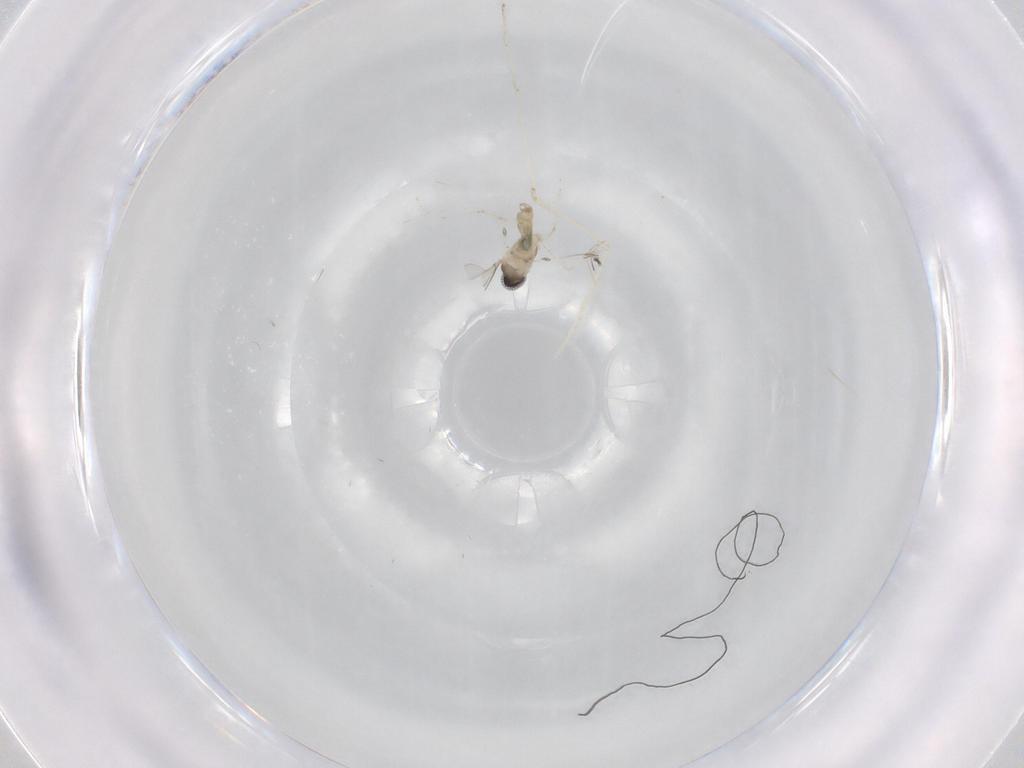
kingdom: Animalia
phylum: Arthropoda
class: Insecta
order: Diptera
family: Cecidomyiidae
